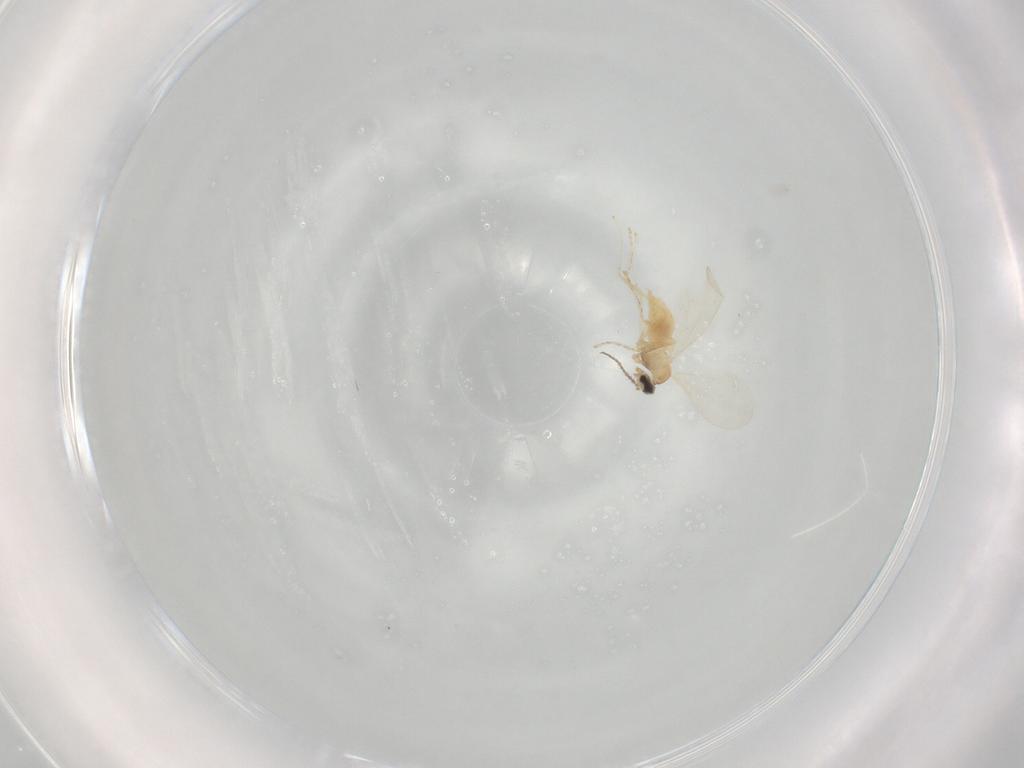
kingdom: Animalia
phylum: Arthropoda
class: Insecta
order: Diptera
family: Cecidomyiidae
